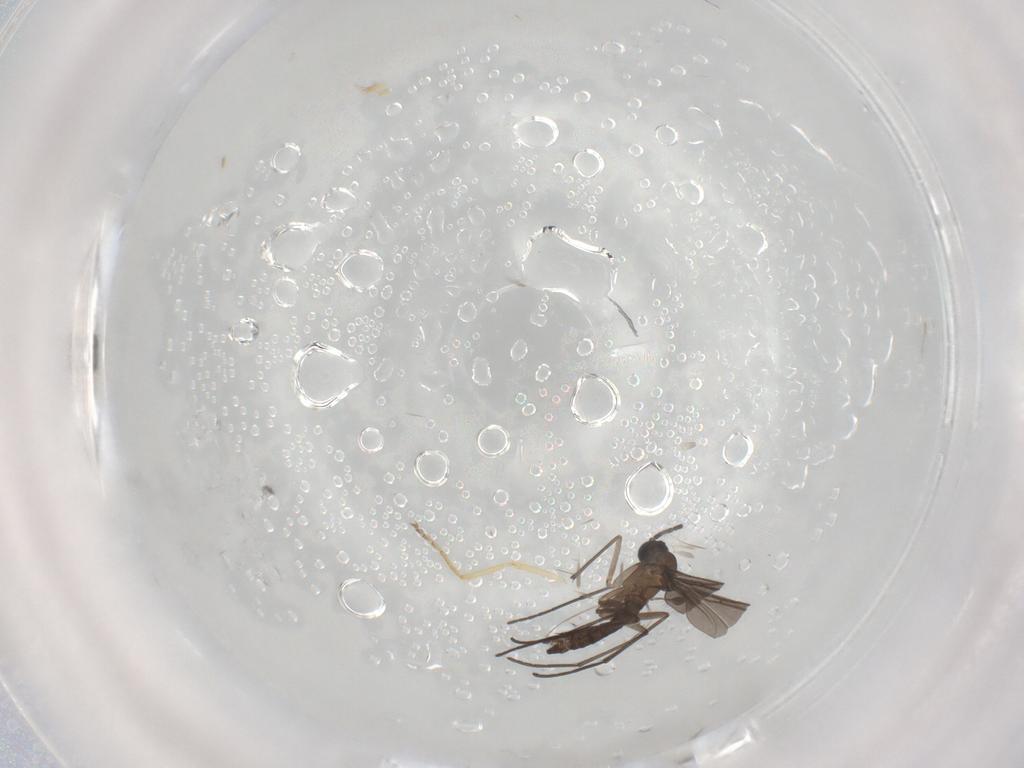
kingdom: Animalia
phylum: Arthropoda
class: Insecta
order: Diptera
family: Ceratopogonidae
